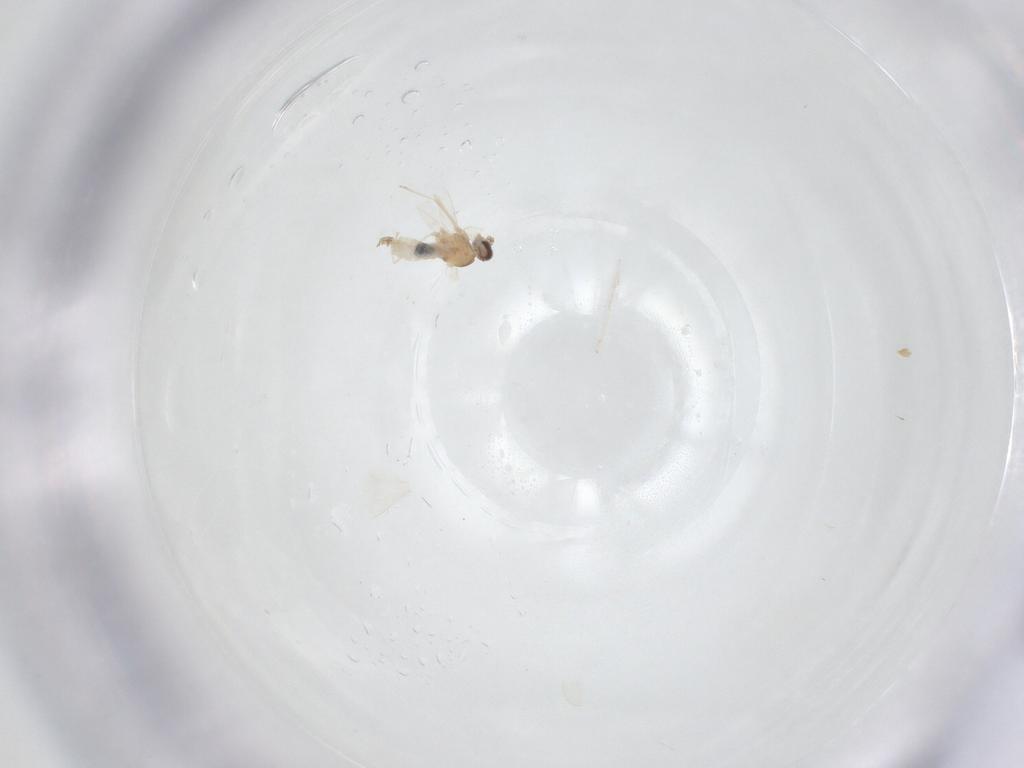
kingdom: Animalia
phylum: Arthropoda
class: Insecta
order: Diptera
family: Cecidomyiidae
